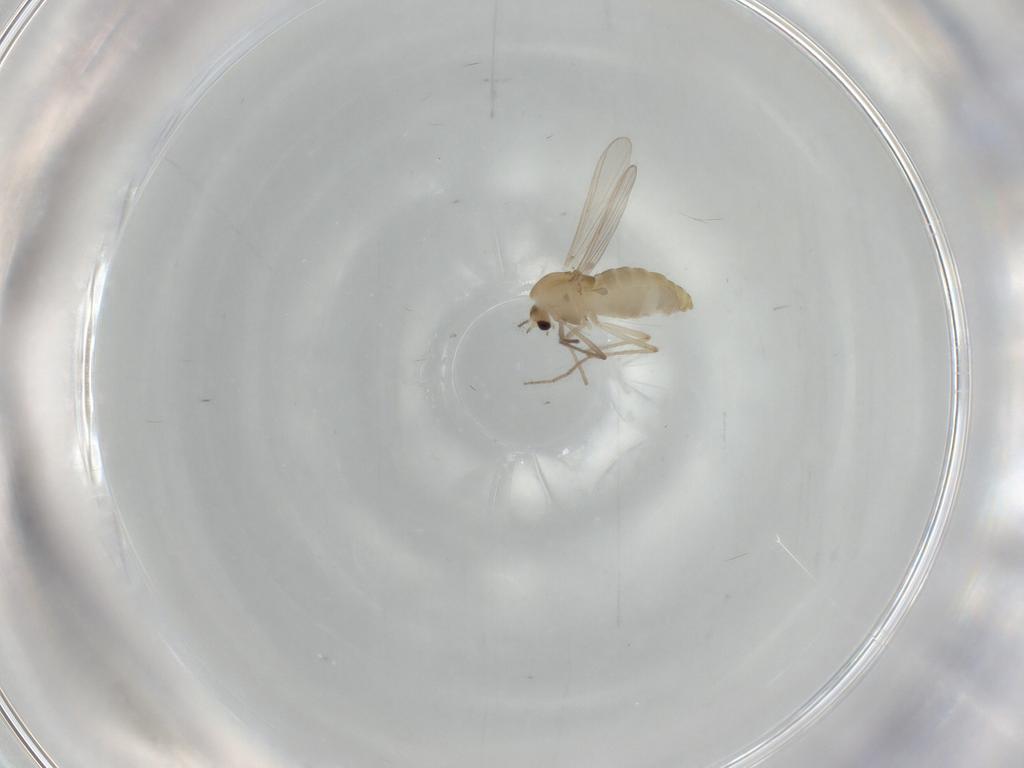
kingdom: Animalia
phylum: Arthropoda
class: Insecta
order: Diptera
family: Chironomidae
